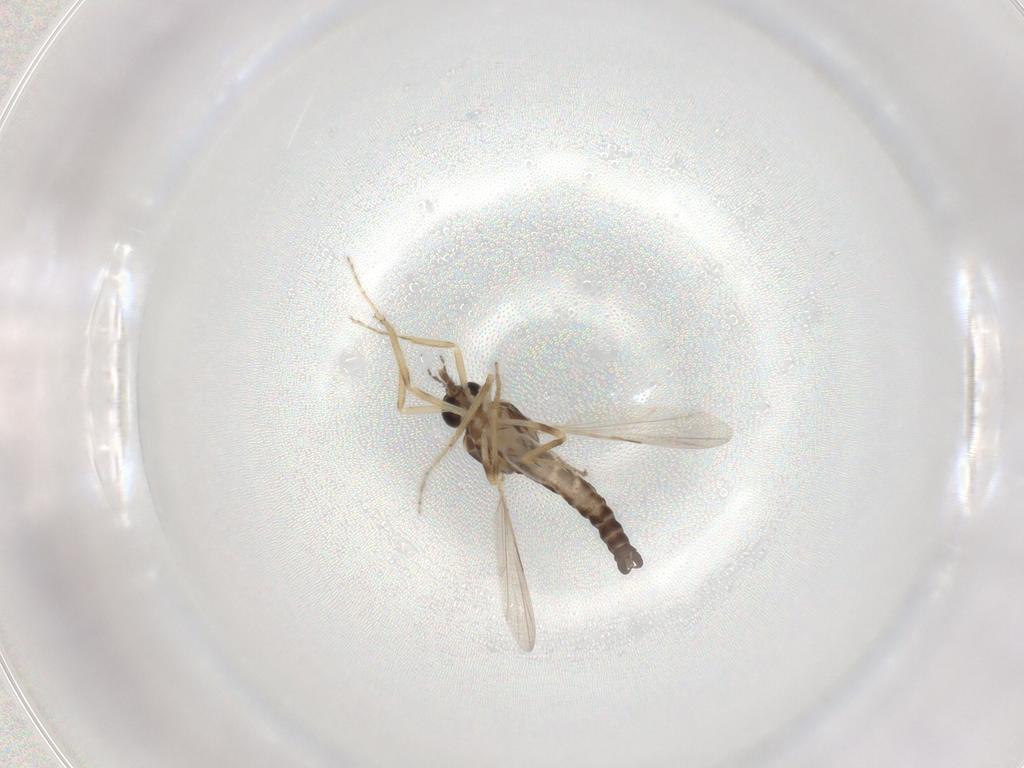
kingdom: Animalia
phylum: Arthropoda
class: Insecta
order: Diptera
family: Ceratopogonidae
